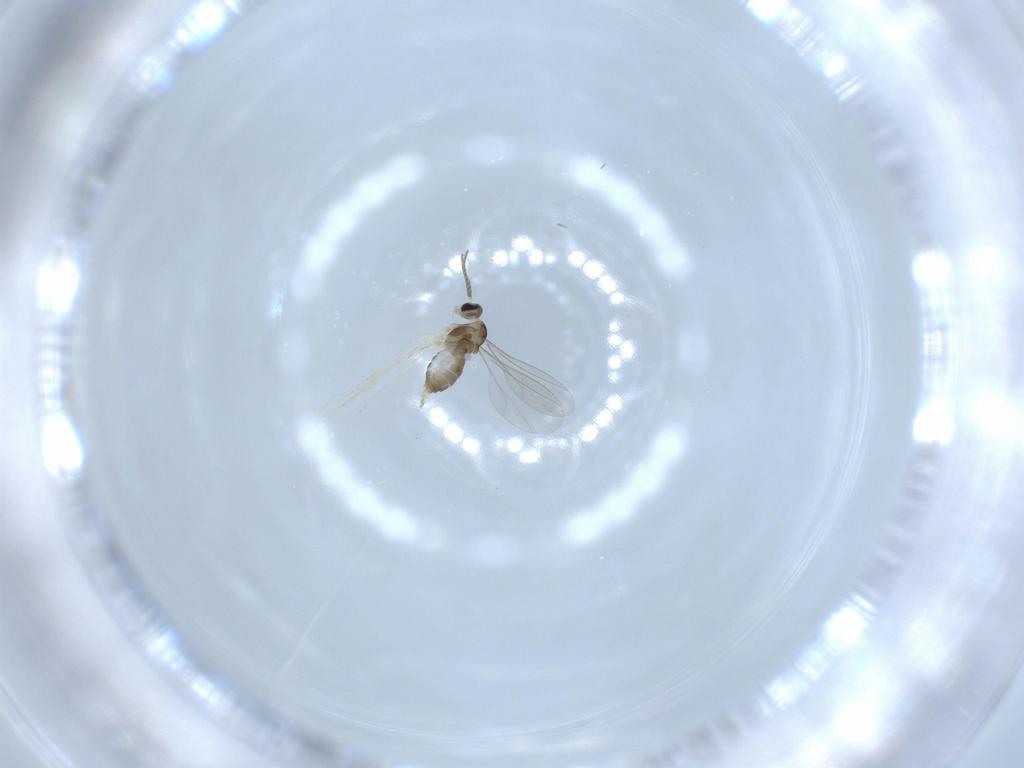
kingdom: Animalia
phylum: Arthropoda
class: Insecta
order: Diptera
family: Cecidomyiidae
